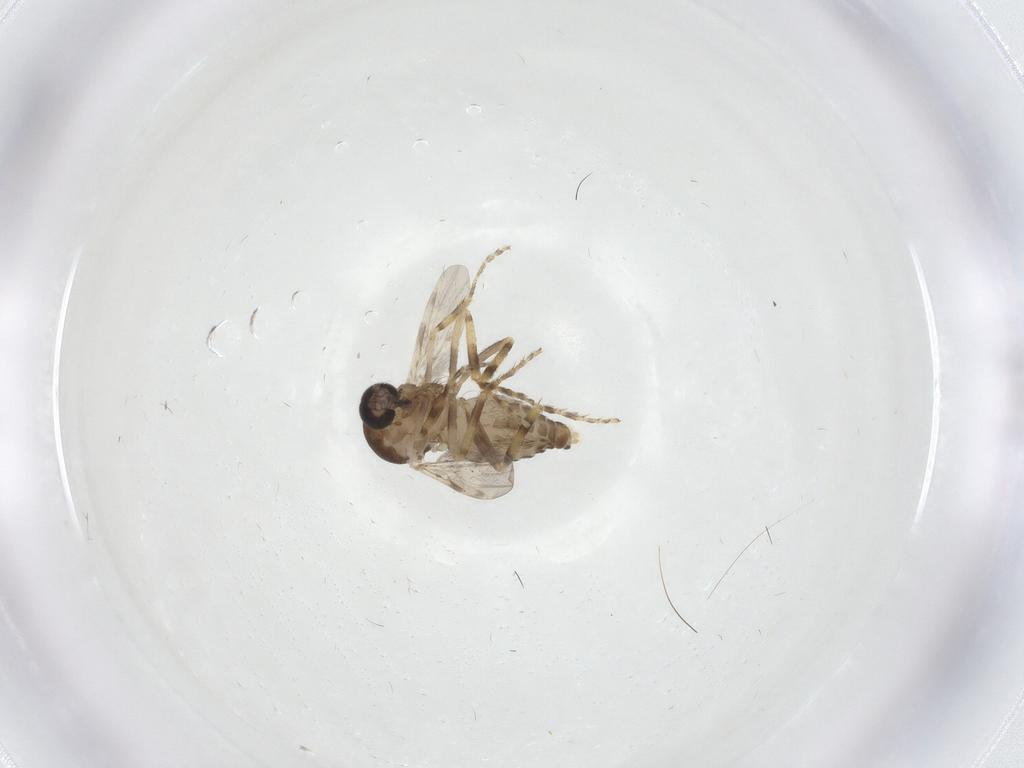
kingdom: Animalia
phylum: Arthropoda
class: Insecta
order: Diptera
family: Ceratopogonidae
